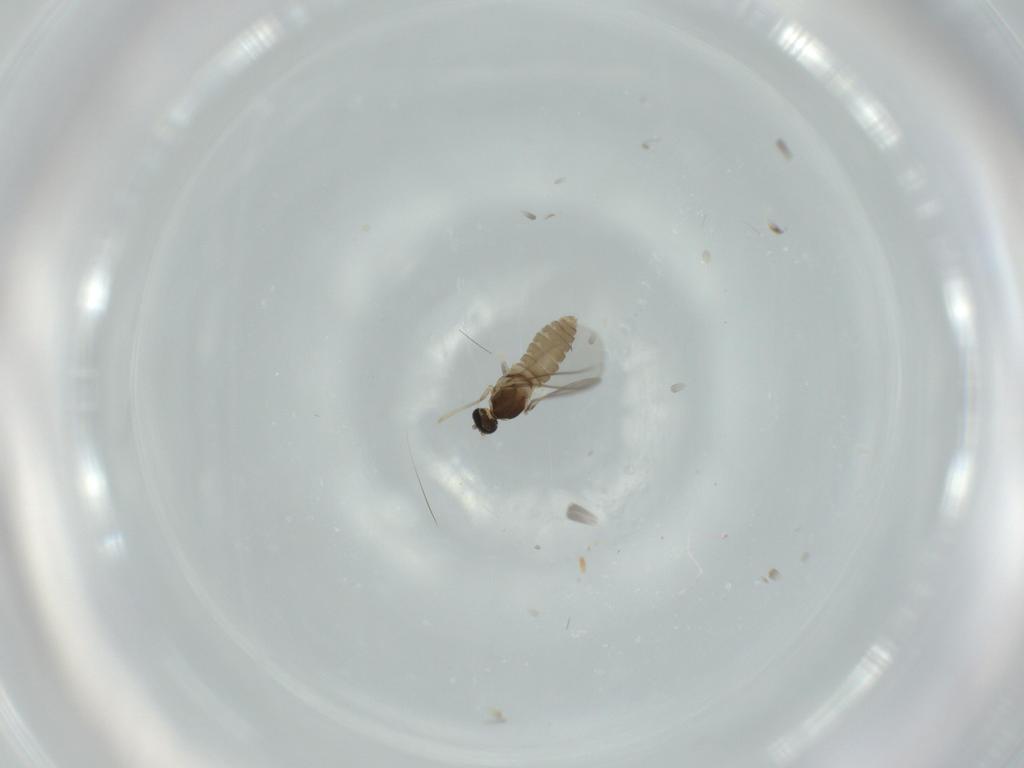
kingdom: Animalia
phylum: Arthropoda
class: Insecta
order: Diptera
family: Cecidomyiidae
